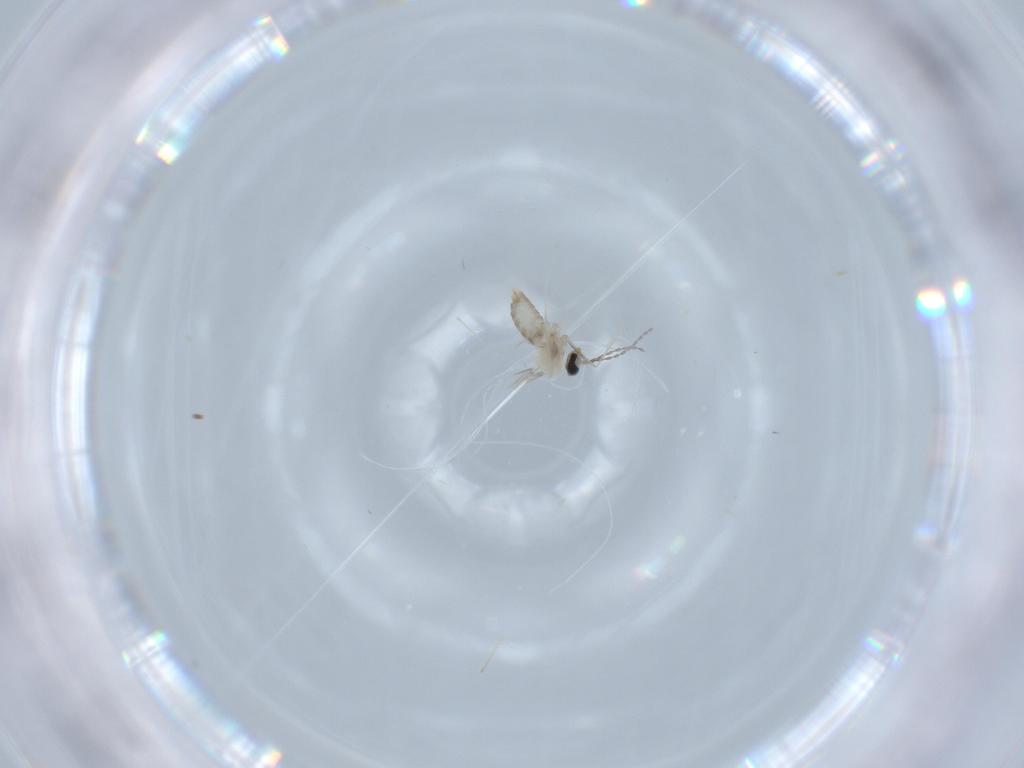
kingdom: Animalia
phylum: Arthropoda
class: Insecta
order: Diptera
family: Cecidomyiidae
